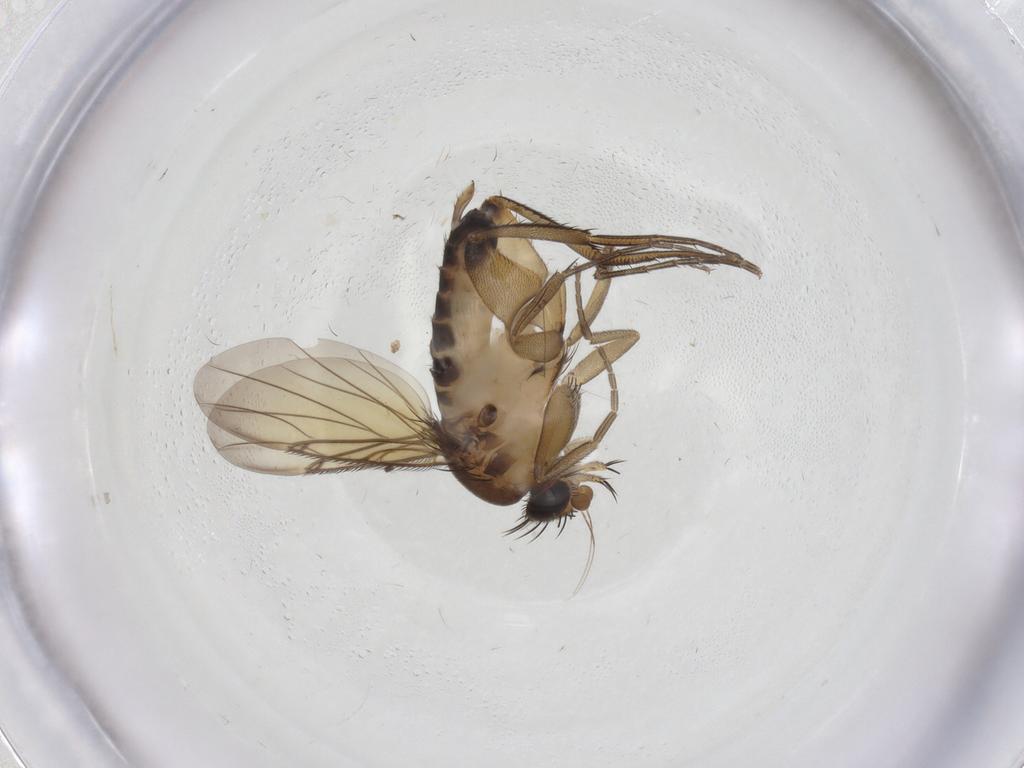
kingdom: Animalia
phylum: Arthropoda
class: Insecta
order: Diptera
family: Phoridae
